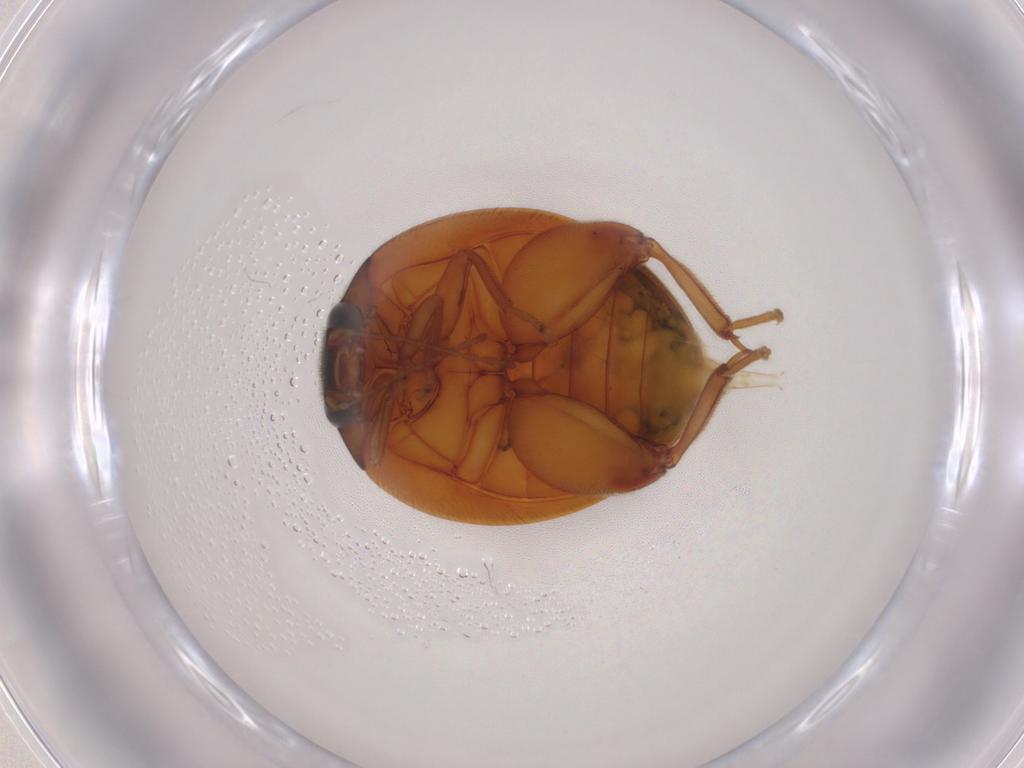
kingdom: Animalia
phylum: Arthropoda
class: Insecta
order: Coleoptera
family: Scirtidae
